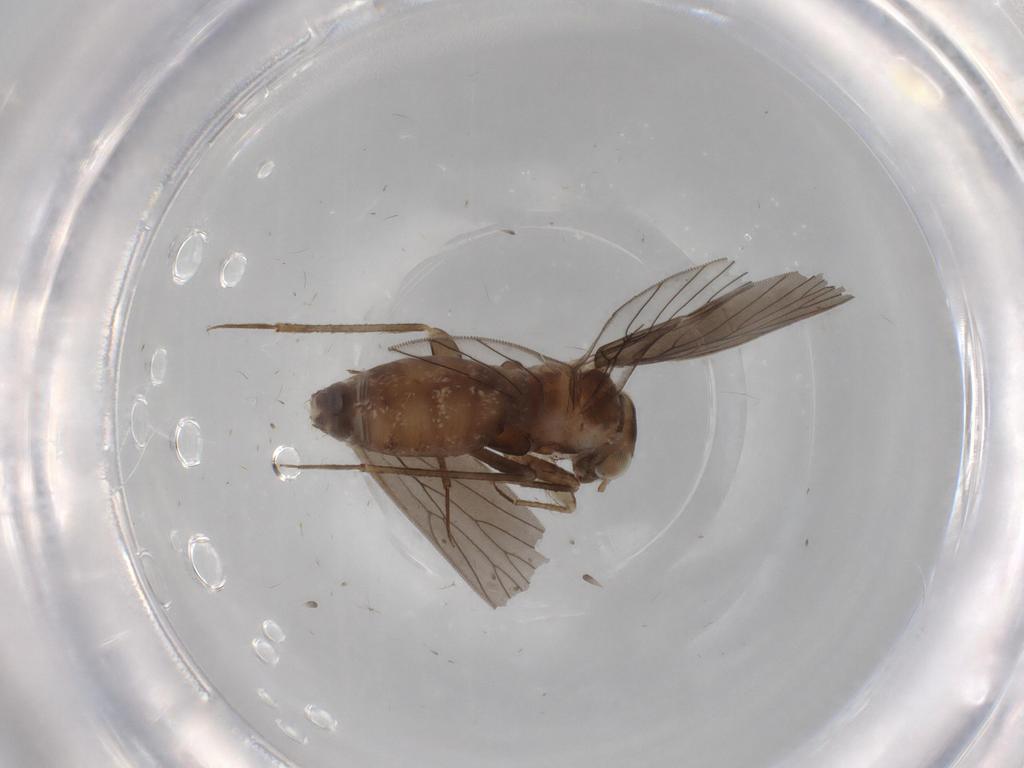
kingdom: Animalia
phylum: Arthropoda
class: Insecta
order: Psocodea
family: Lepidopsocidae
